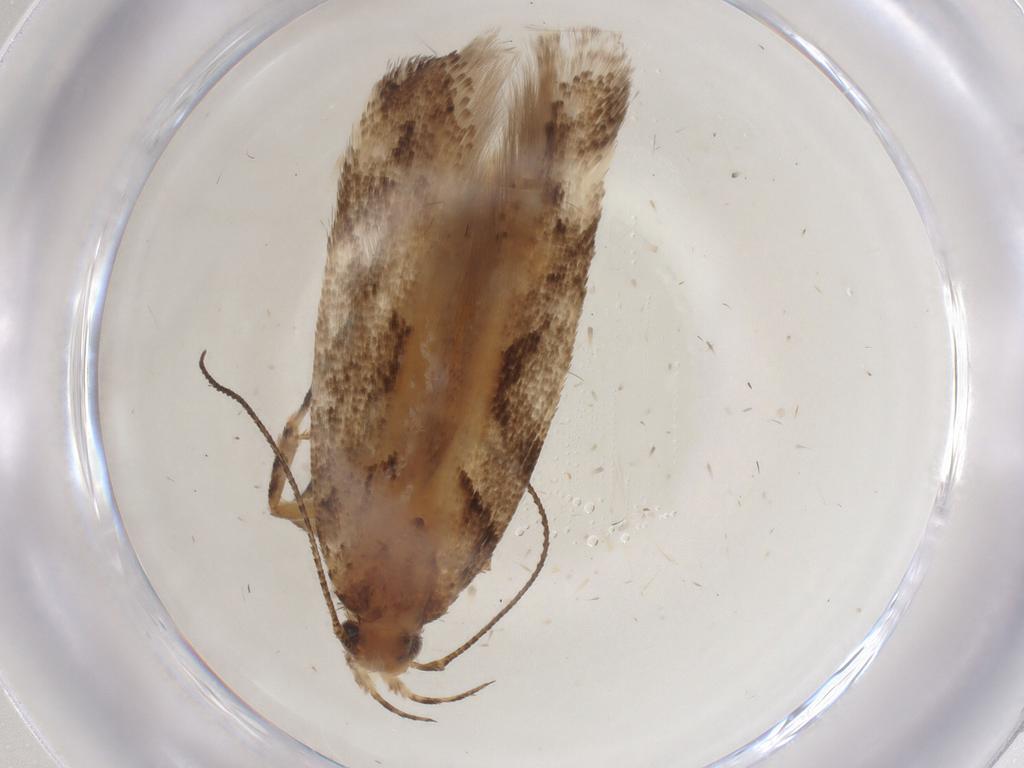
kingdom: Animalia
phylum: Arthropoda
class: Insecta
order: Lepidoptera
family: Gelechiidae
